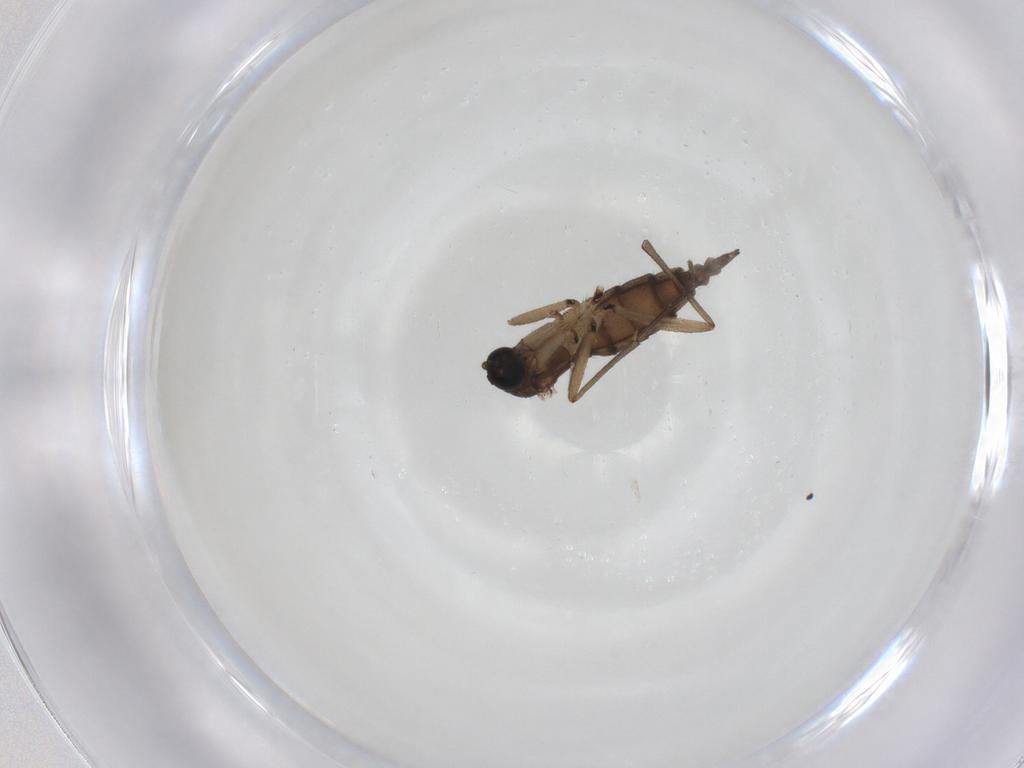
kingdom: Animalia
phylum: Arthropoda
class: Insecta
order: Diptera
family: Sciaridae
